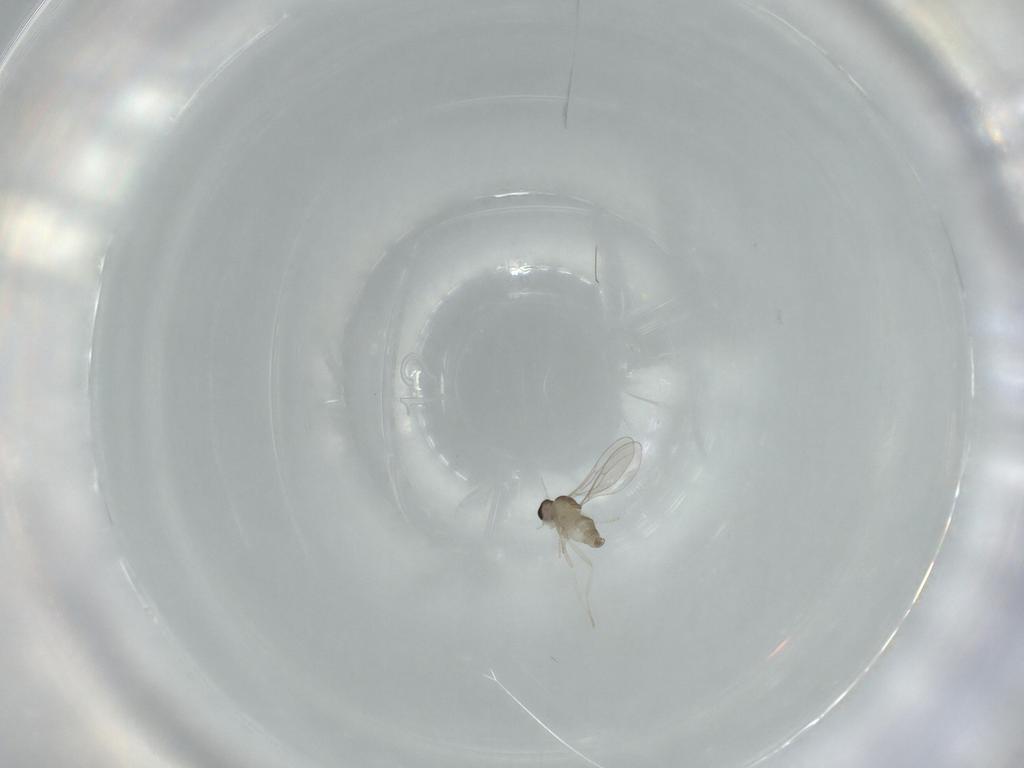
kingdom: Animalia
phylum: Arthropoda
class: Insecta
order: Diptera
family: Cecidomyiidae
